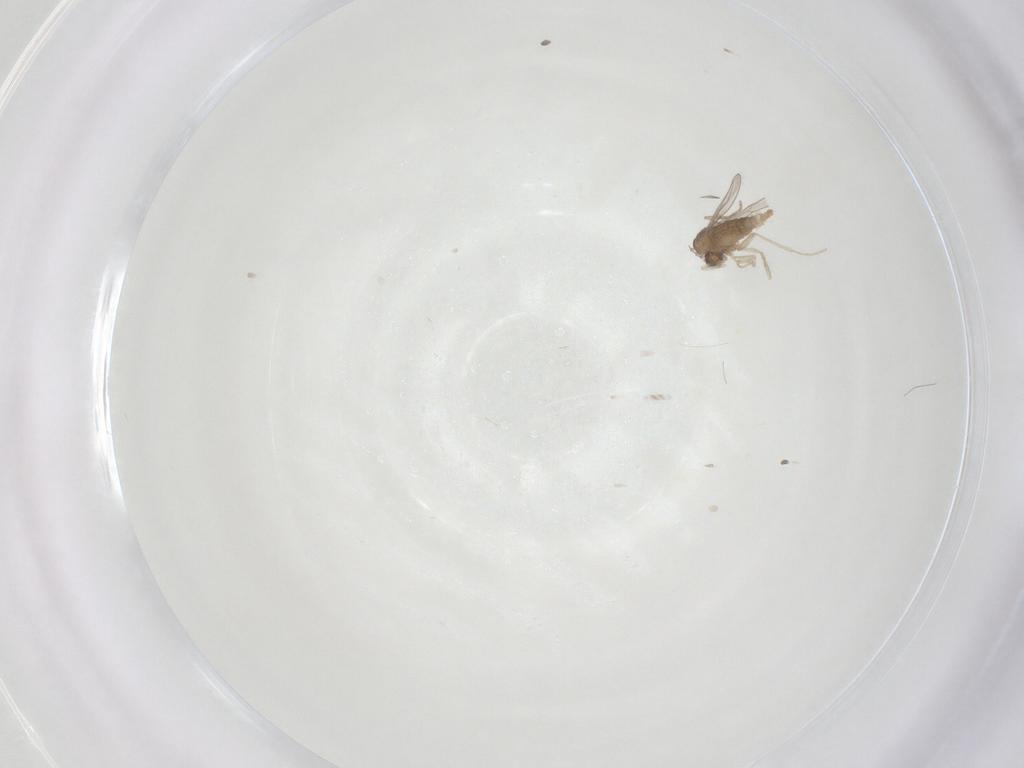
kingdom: Animalia
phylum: Arthropoda
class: Insecta
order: Diptera
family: Cecidomyiidae
